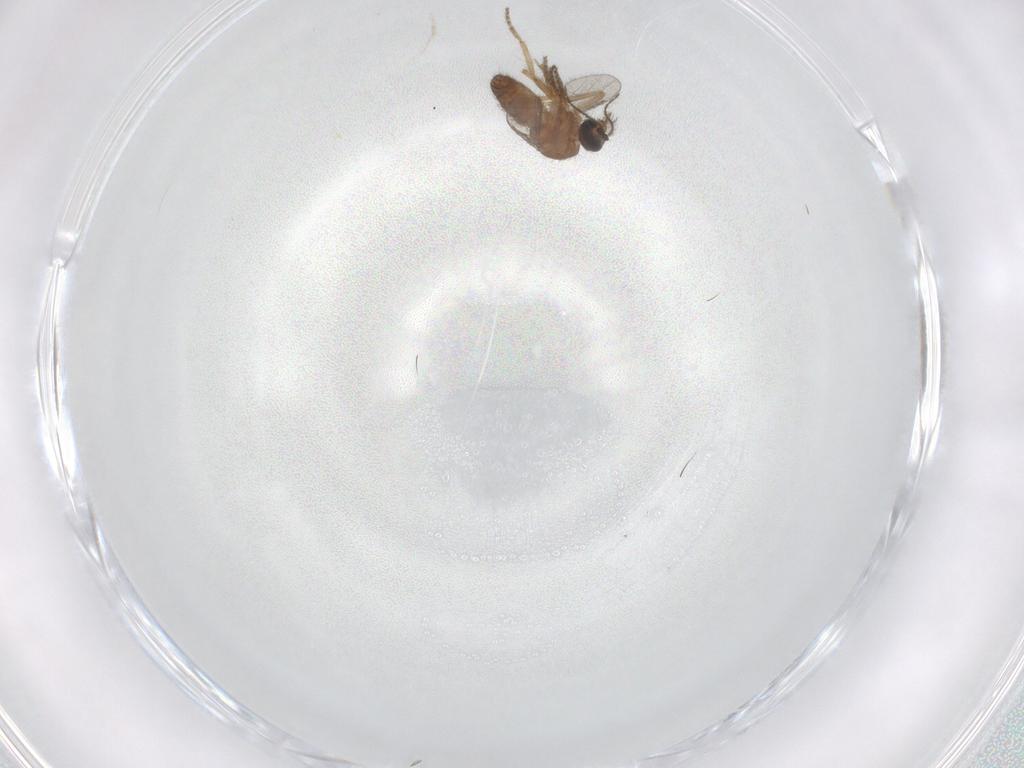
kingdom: Animalia
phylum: Arthropoda
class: Insecta
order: Diptera
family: Ceratopogonidae
